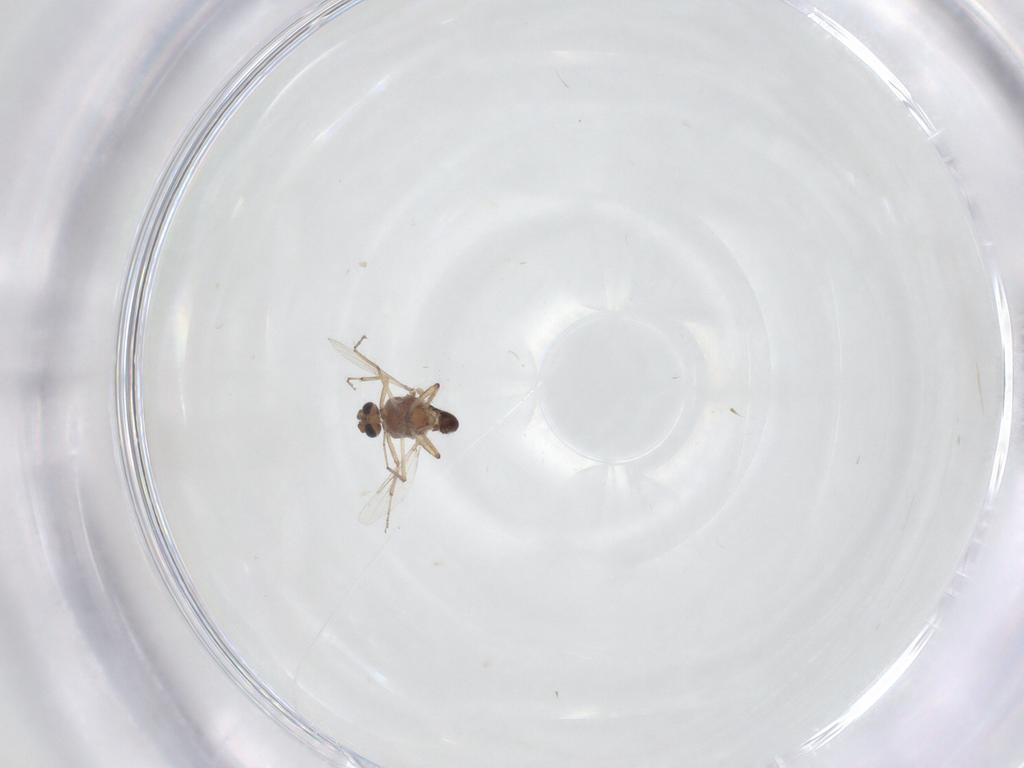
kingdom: Animalia
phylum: Arthropoda
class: Insecta
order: Diptera
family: Ceratopogonidae
